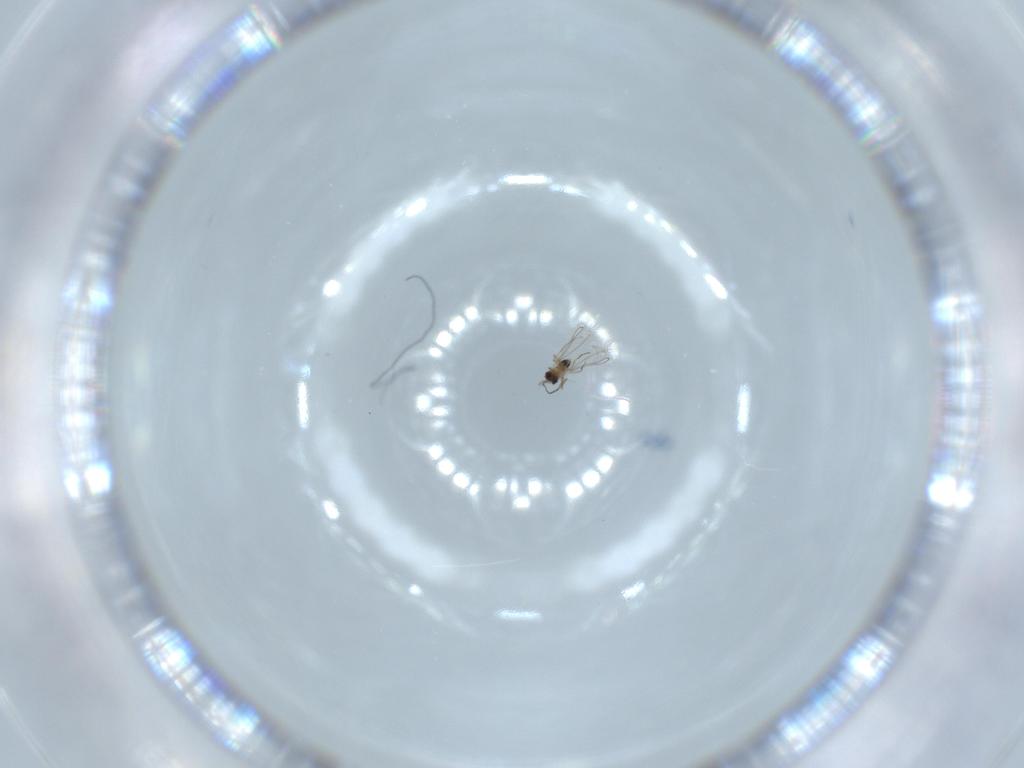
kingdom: Animalia
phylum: Arthropoda
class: Insecta
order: Hymenoptera
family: Mymaridae
